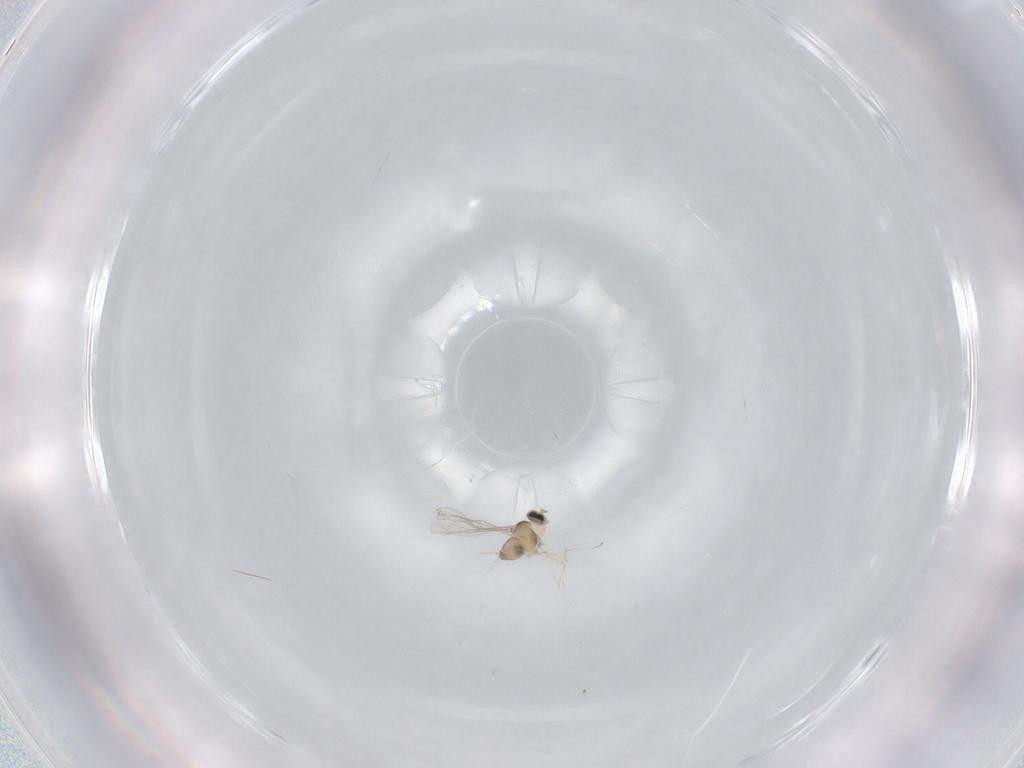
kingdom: Animalia
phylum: Arthropoda
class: Insecta
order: Diptera
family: Cecidomyiidae
